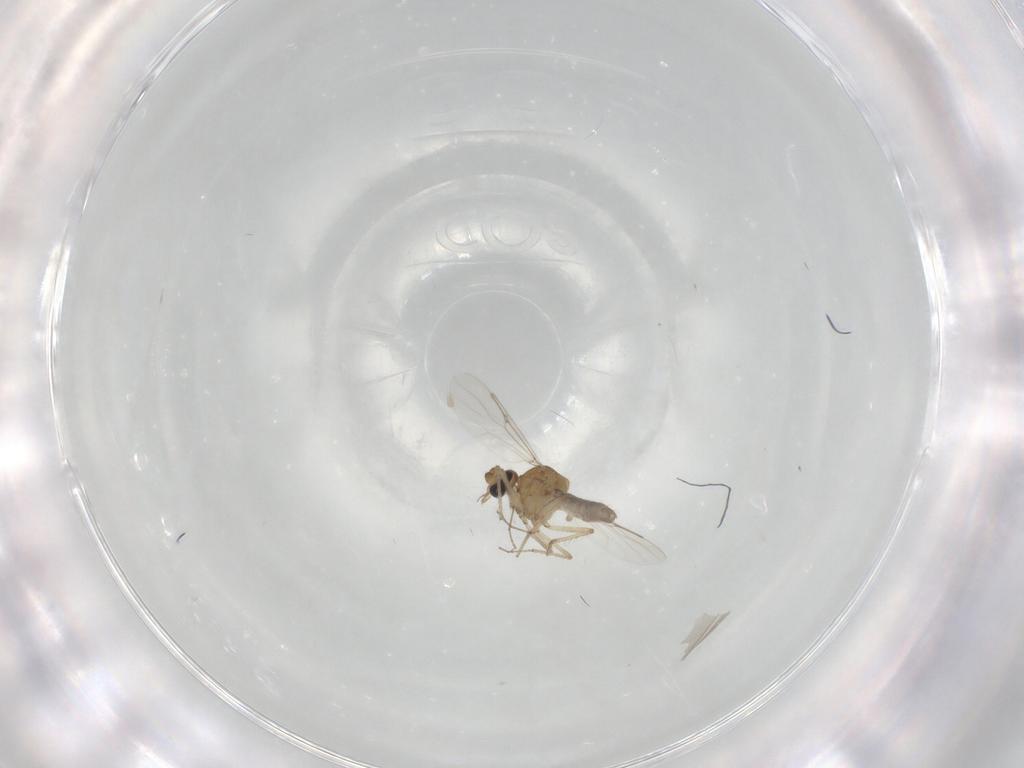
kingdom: Animalia
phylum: Arthropoda
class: Insecta
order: Diptera
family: Ceratopogonidae
